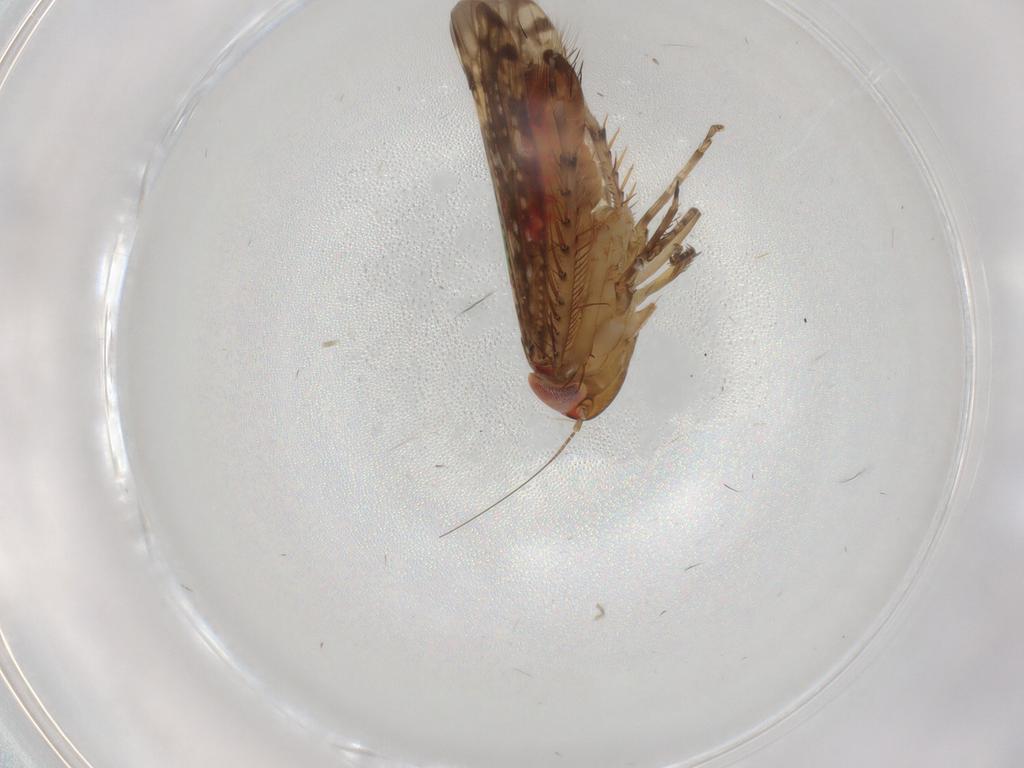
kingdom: Animalia
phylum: Arthropoda
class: Insecta
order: Hemiptera
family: Cicadellidae
